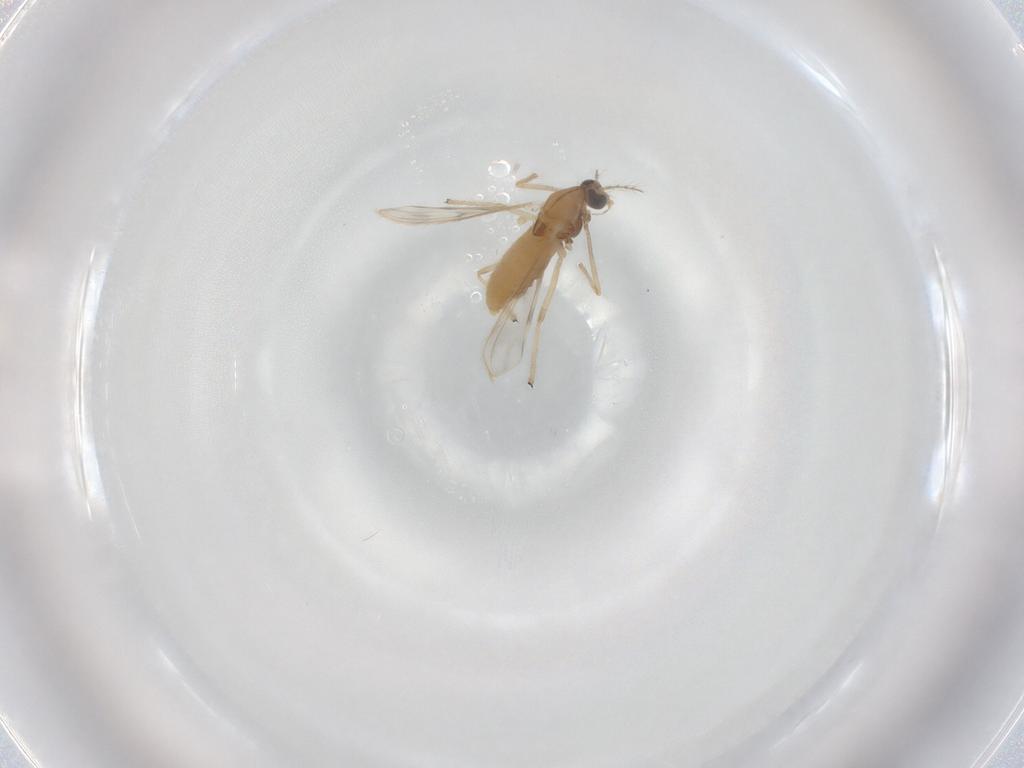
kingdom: Animalia
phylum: Arthropoda
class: Insecta
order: Diptera
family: Chironomidae
